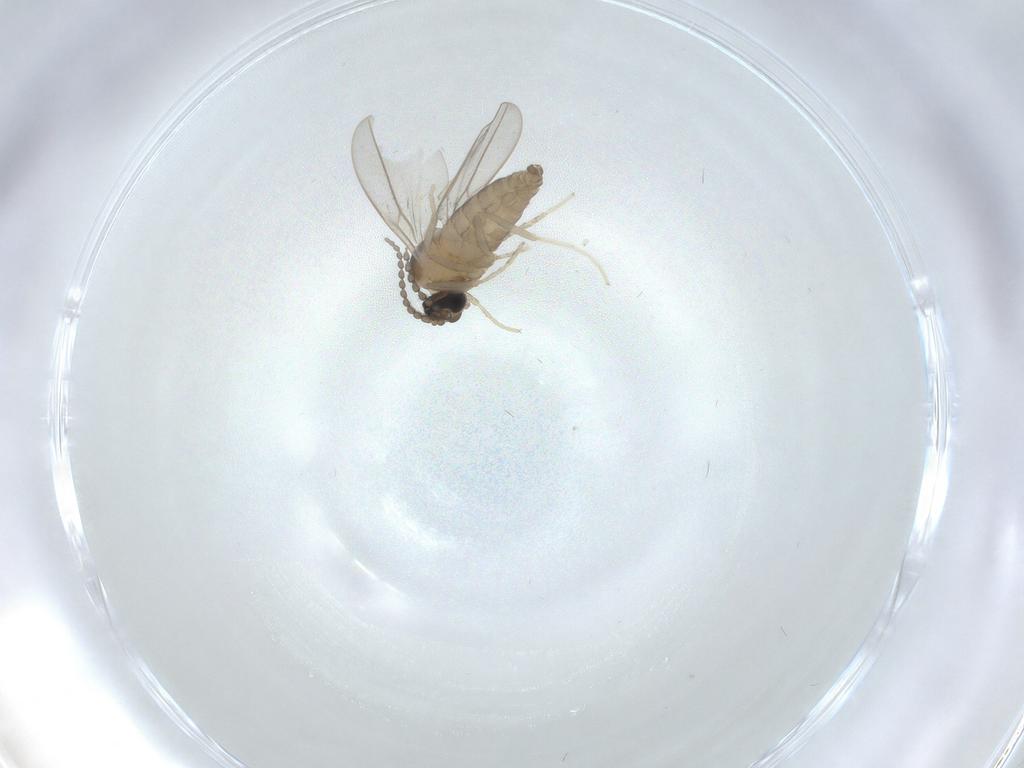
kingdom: Animalia
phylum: Arthropoda
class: Insecta
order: Diptera
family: Cecidomyiidae
